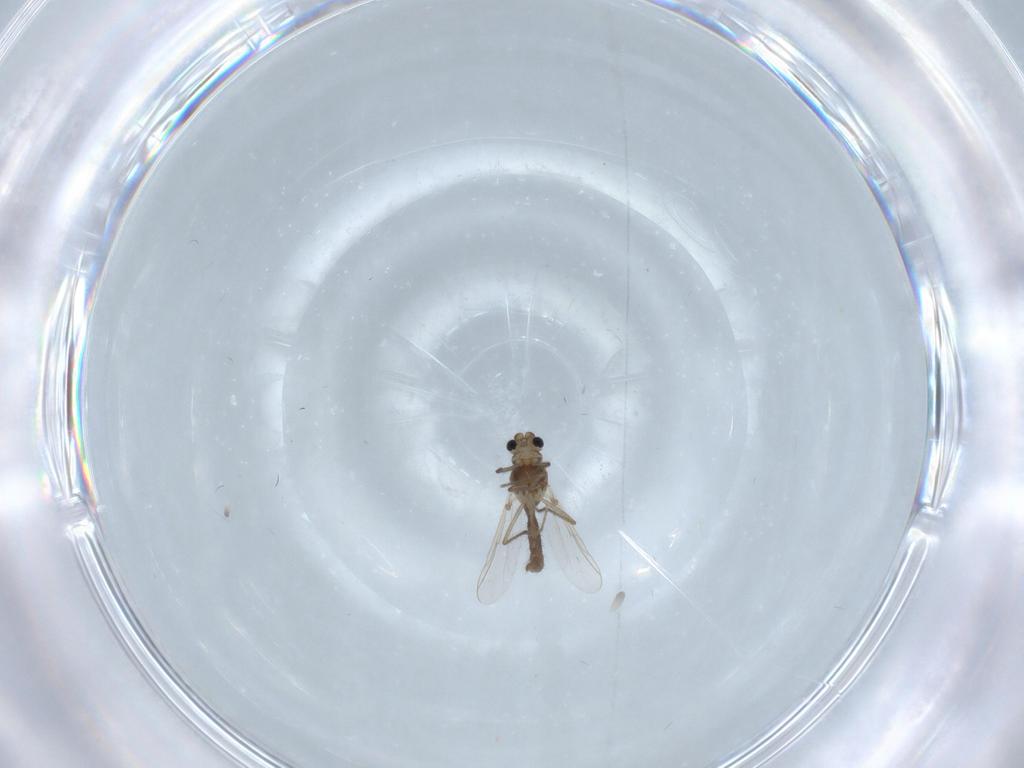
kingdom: Animalia
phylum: Arthropoda
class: Insecta
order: Diptera
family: Chironomidae
